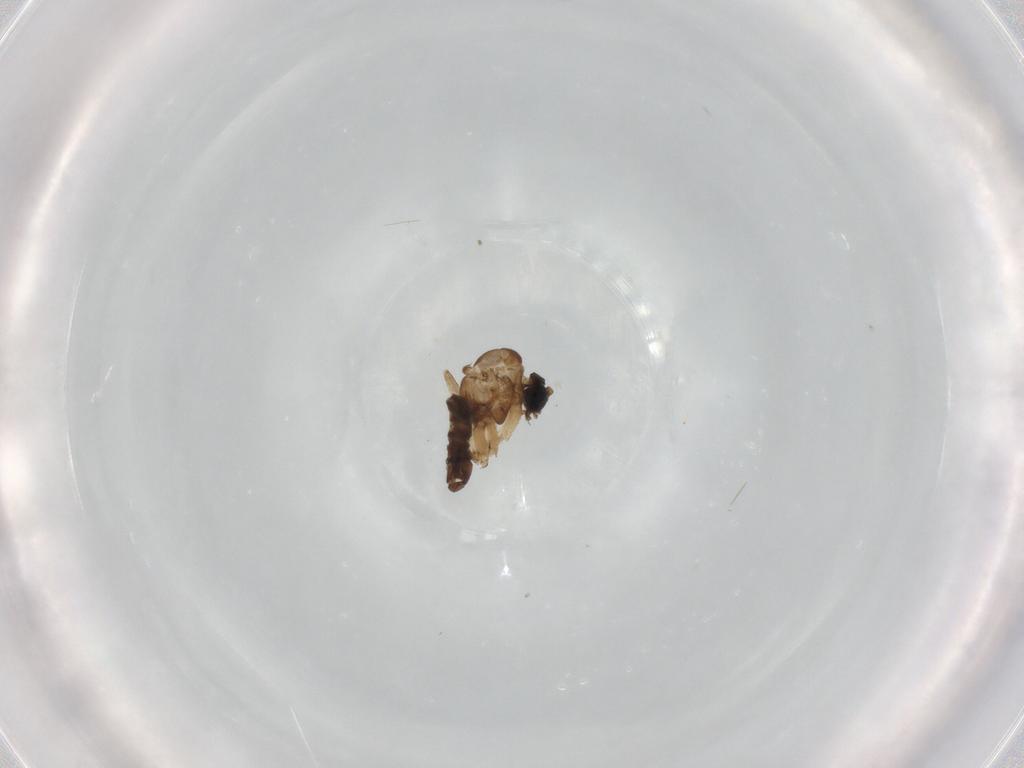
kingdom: Animalia
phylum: Arthropoda
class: Insecta
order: Diptera
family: Sciaridae
